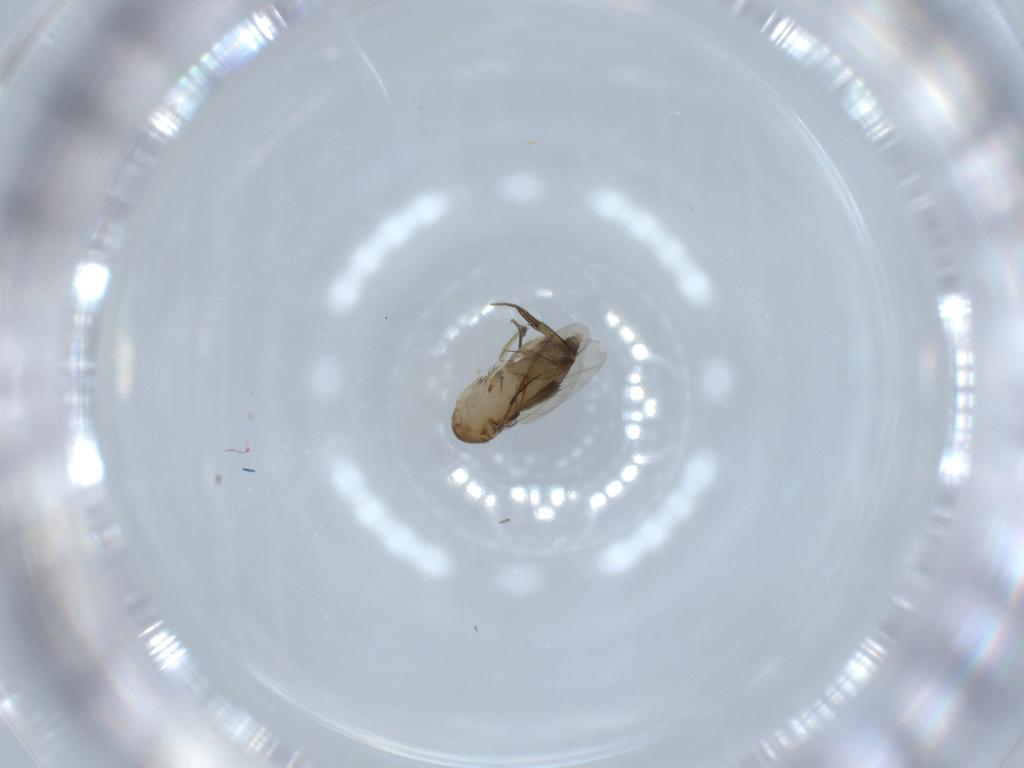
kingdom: Animalia
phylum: Arthropoda
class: Insecta
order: Diptera
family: Phoridae
